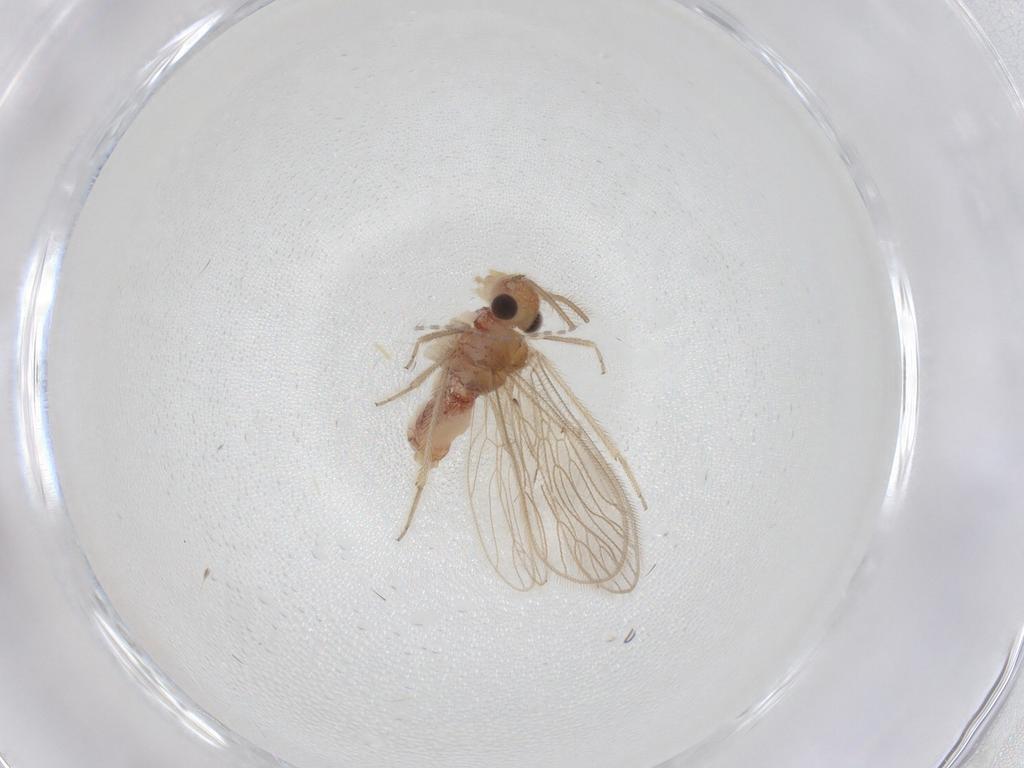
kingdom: Animalia
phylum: Arthropoda
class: Insecta
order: Psocodea
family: Cladiopsocidae
